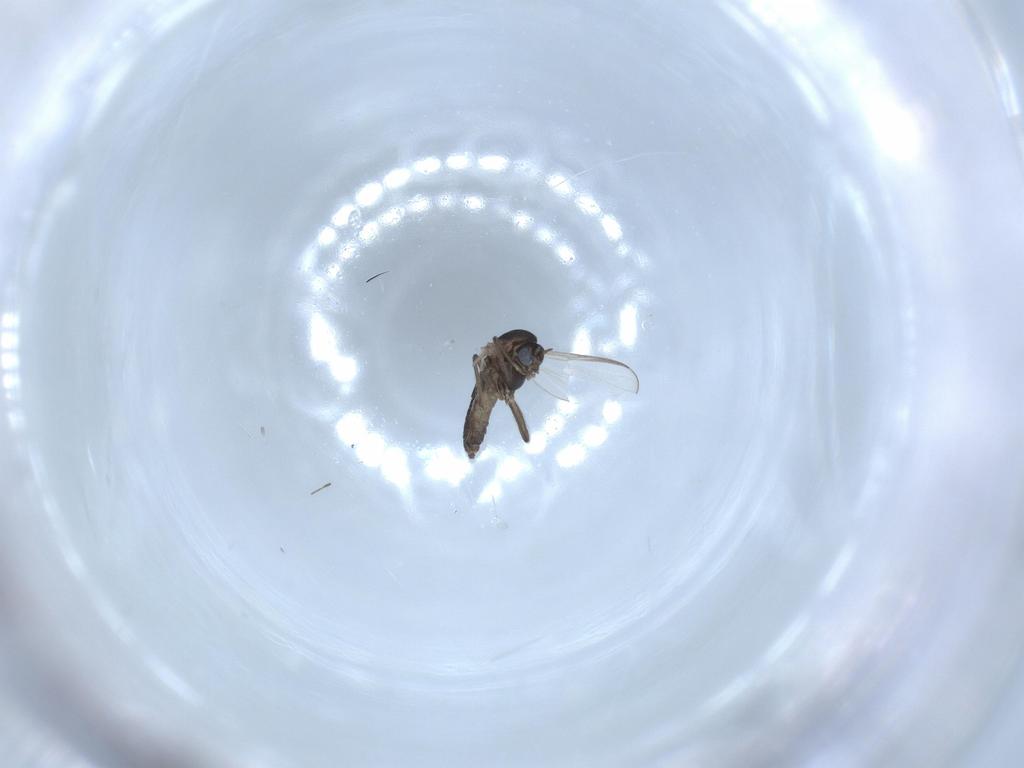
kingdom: Animalia
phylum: Arthropoda
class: Insecta
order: Diptera
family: Chironomidae
